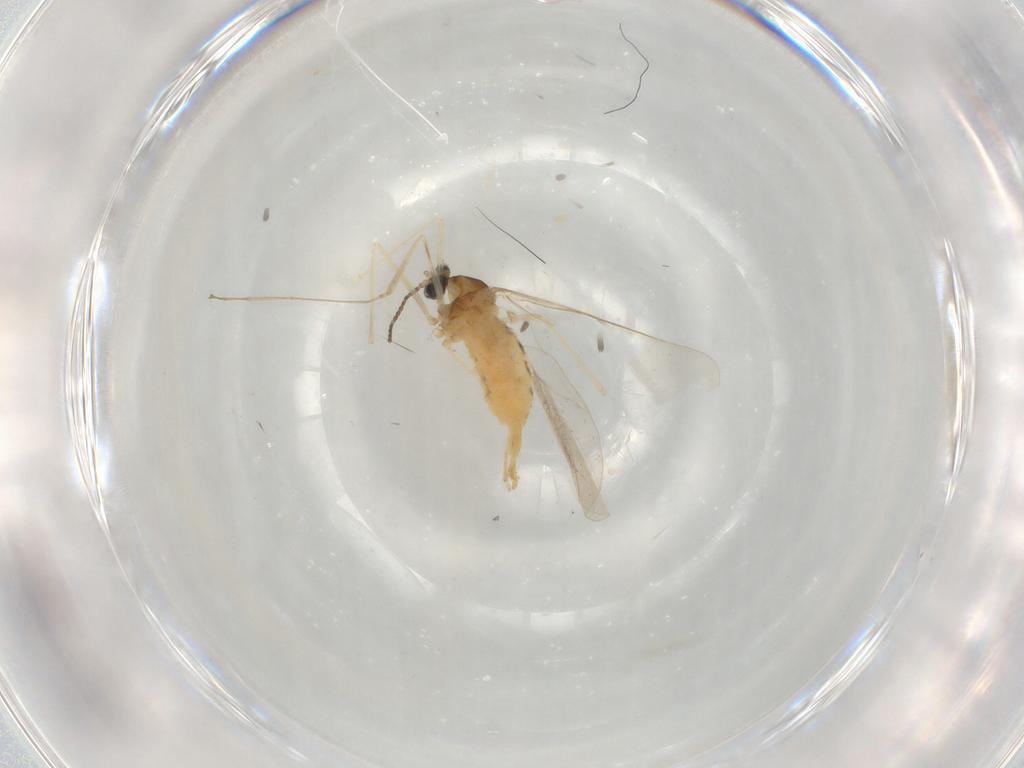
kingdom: Animalia
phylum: Arthropoda
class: Insecta
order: Diptera
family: Cecidomyiidae
